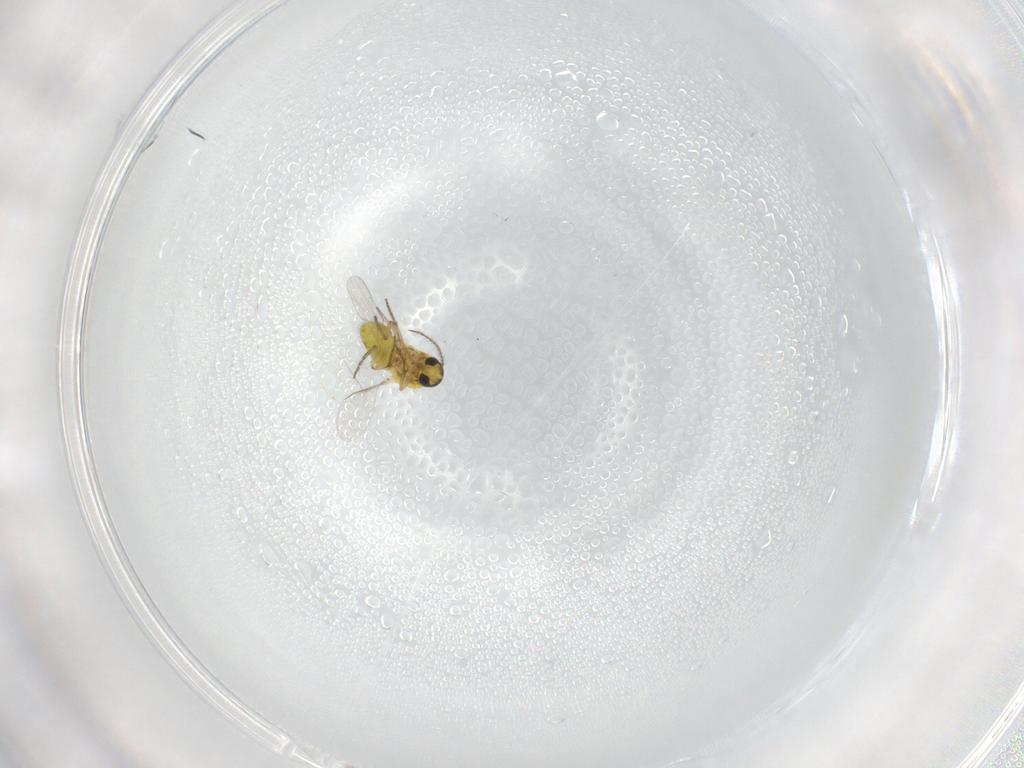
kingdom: Animalia
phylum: Arthropoda
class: Insecta
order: Diptera
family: Ceratopogonidae
